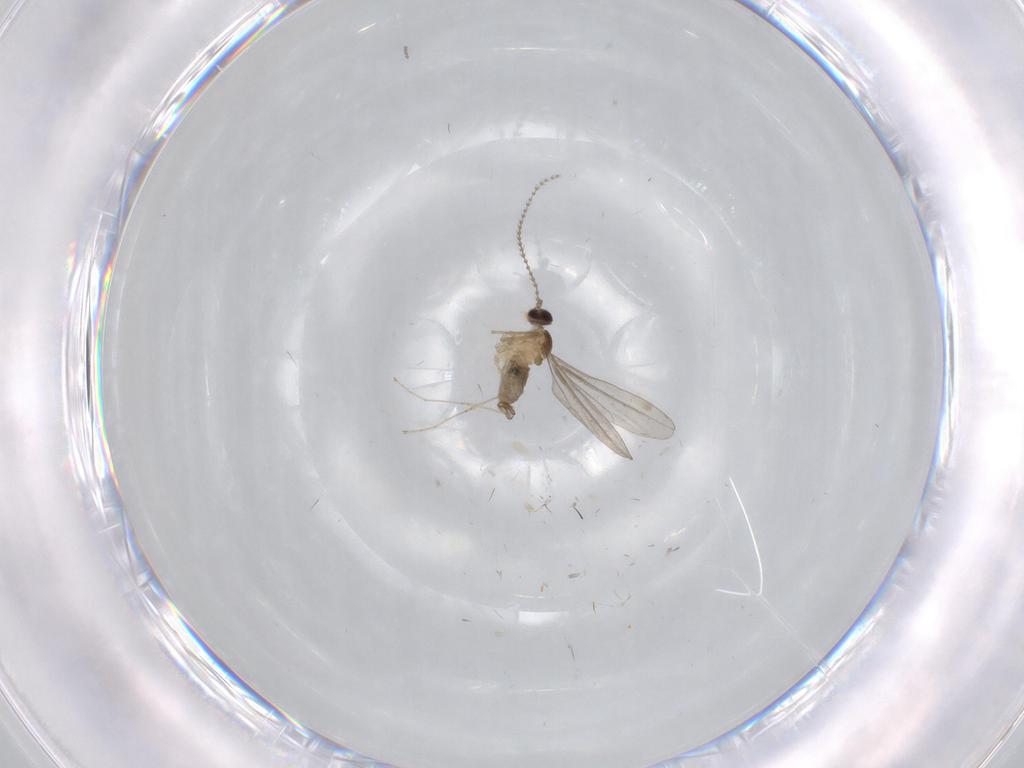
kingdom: Animalia
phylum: Arthropoda
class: Insecta
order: Diptera
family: Cecidomyiidae
